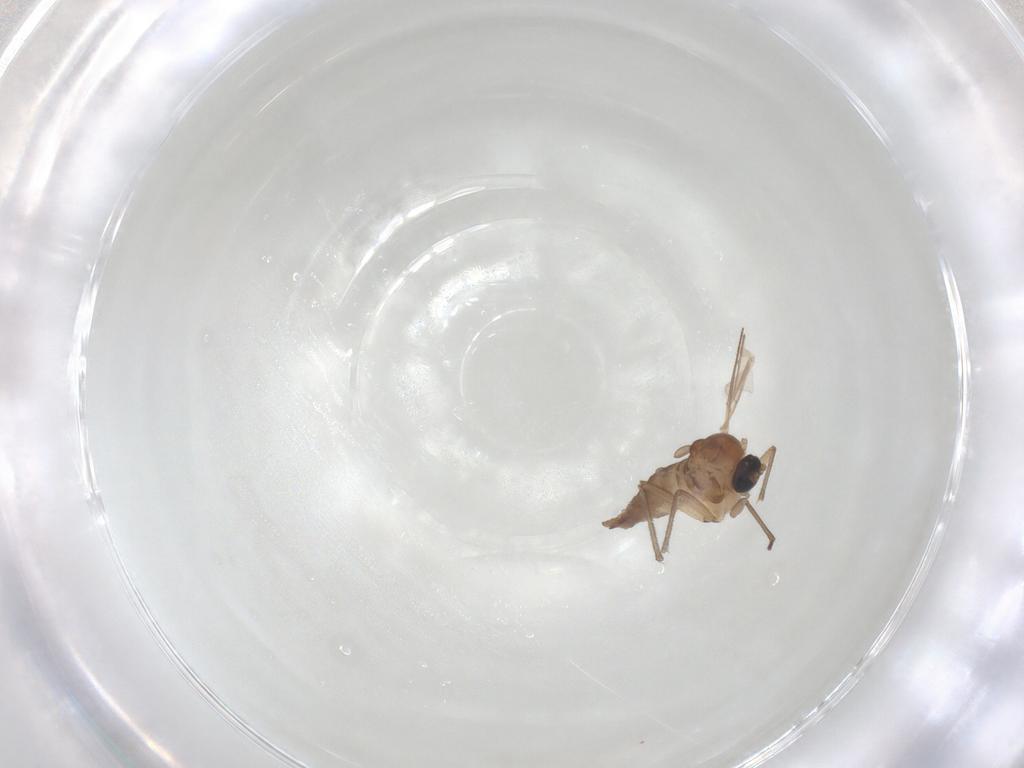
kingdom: Animalia
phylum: Arthropoda
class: Insecta
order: Diptera
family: Sciaridae
